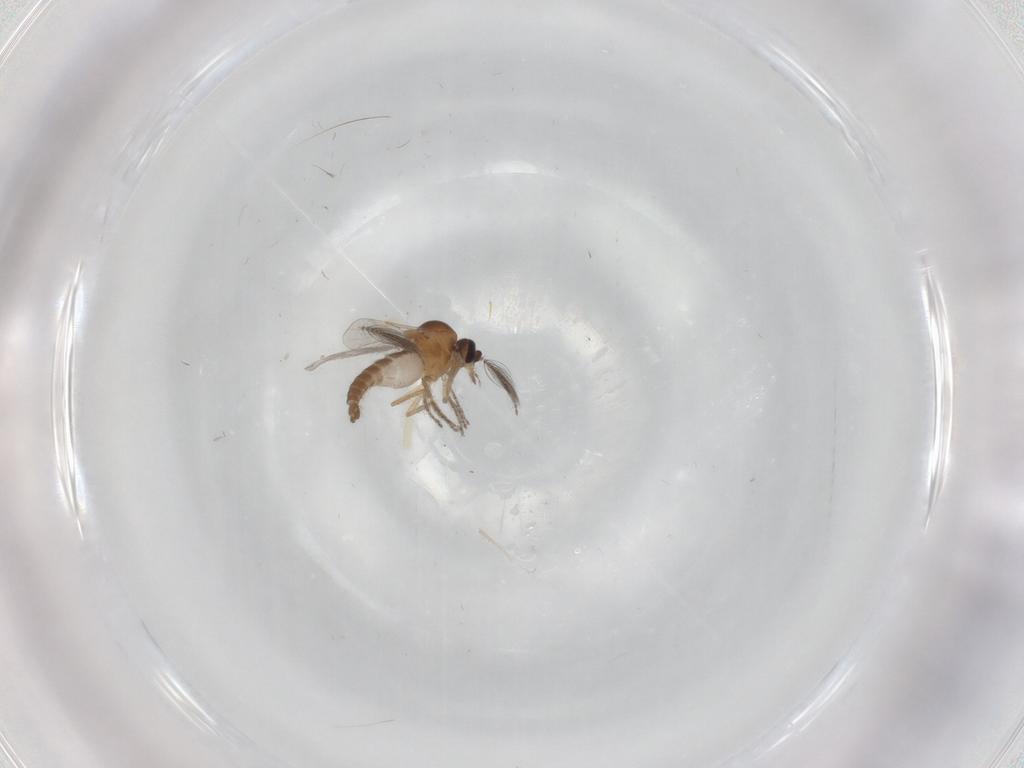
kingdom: Animalia
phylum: Arthropoda
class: Insecta
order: Diptera
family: Ceratopogonidae
